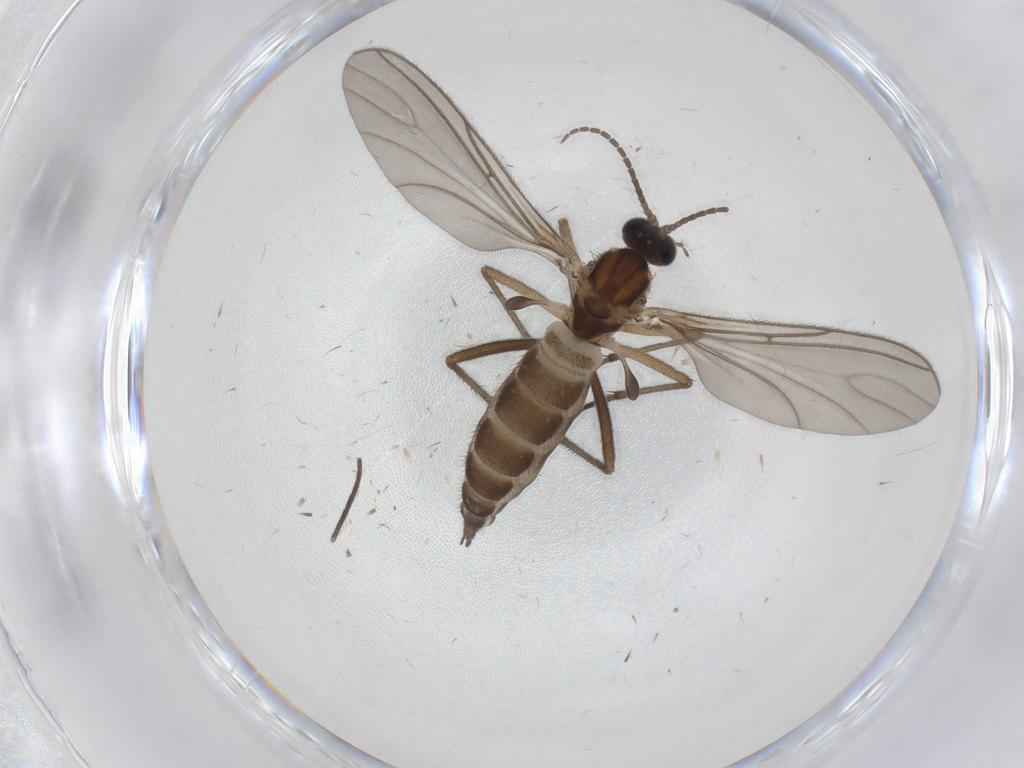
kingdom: Animalia
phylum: Arthropoda
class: Insecta
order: Diptera
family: Sciaridae
